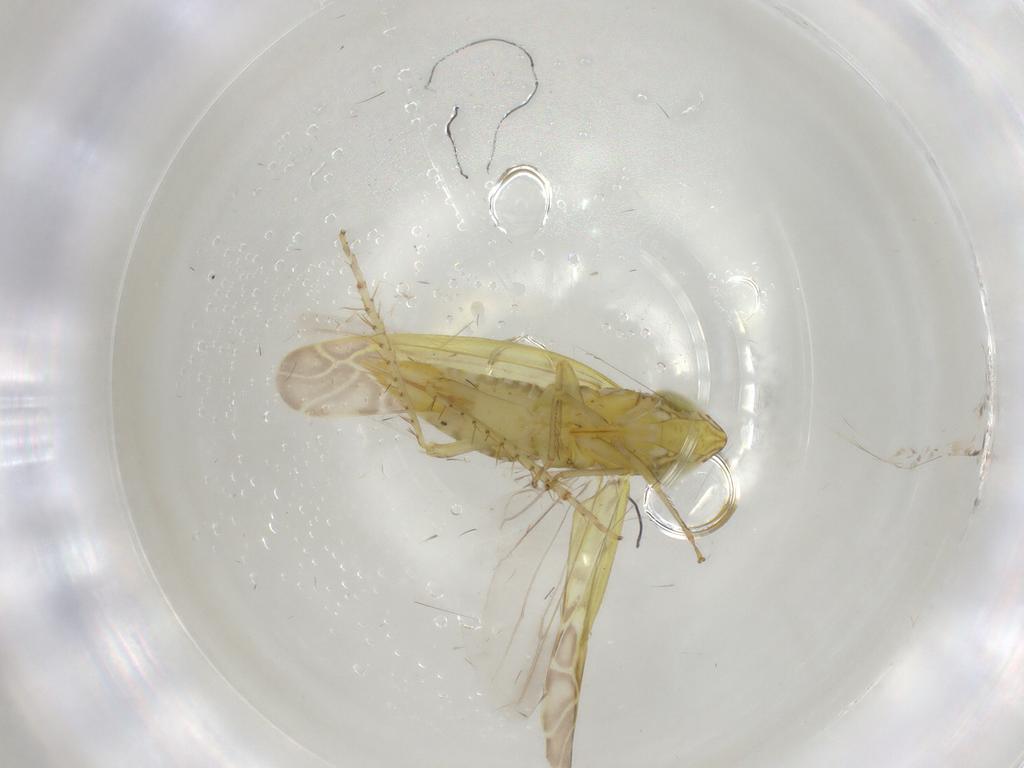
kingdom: Animalia
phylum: Arthropoda
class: Insecta
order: Hemiptera
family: Cicadellidae
